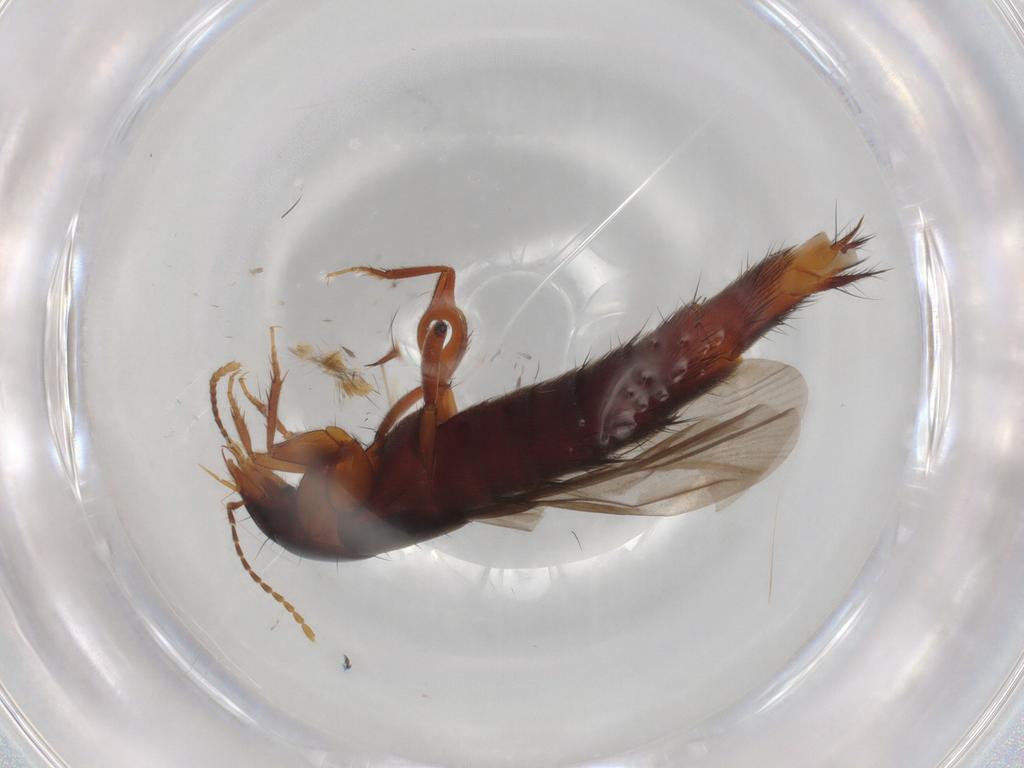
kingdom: Animalia
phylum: Arthropoda
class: Insecta
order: Coleoptera
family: Staphylinidae
